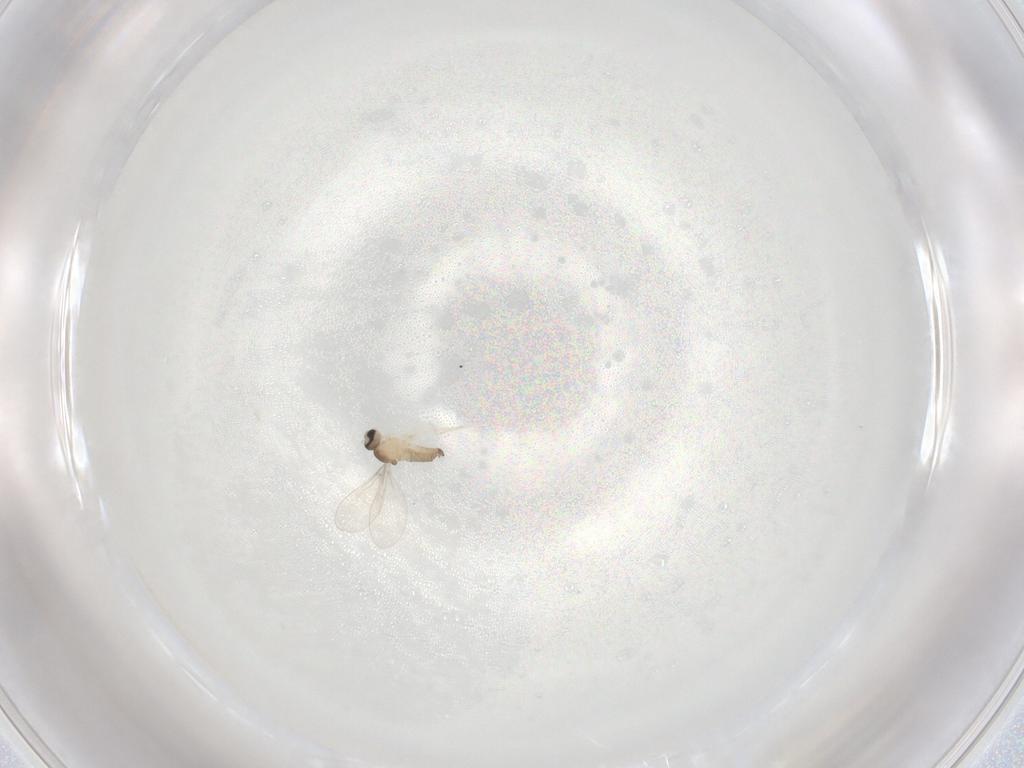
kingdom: Animalia
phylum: Arthropoda
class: Insecta
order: Diptera
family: Cecidomyiidae
